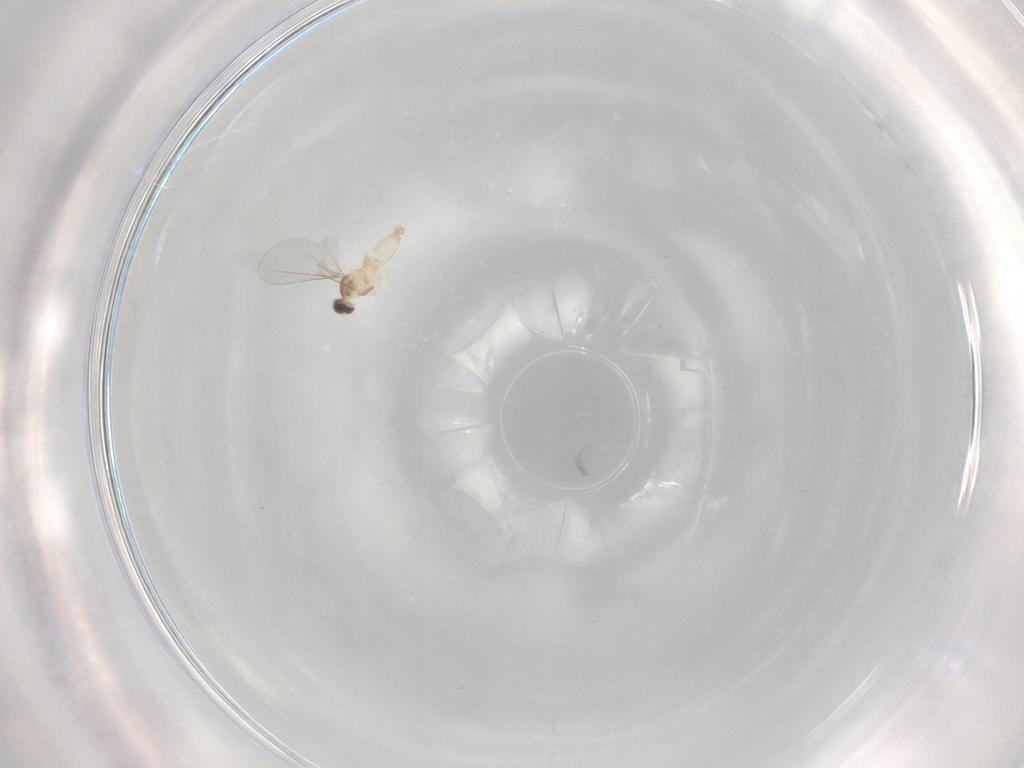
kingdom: Animalia
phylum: Arthropoda
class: Insecta
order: Diptera
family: Cecidomyiidae
